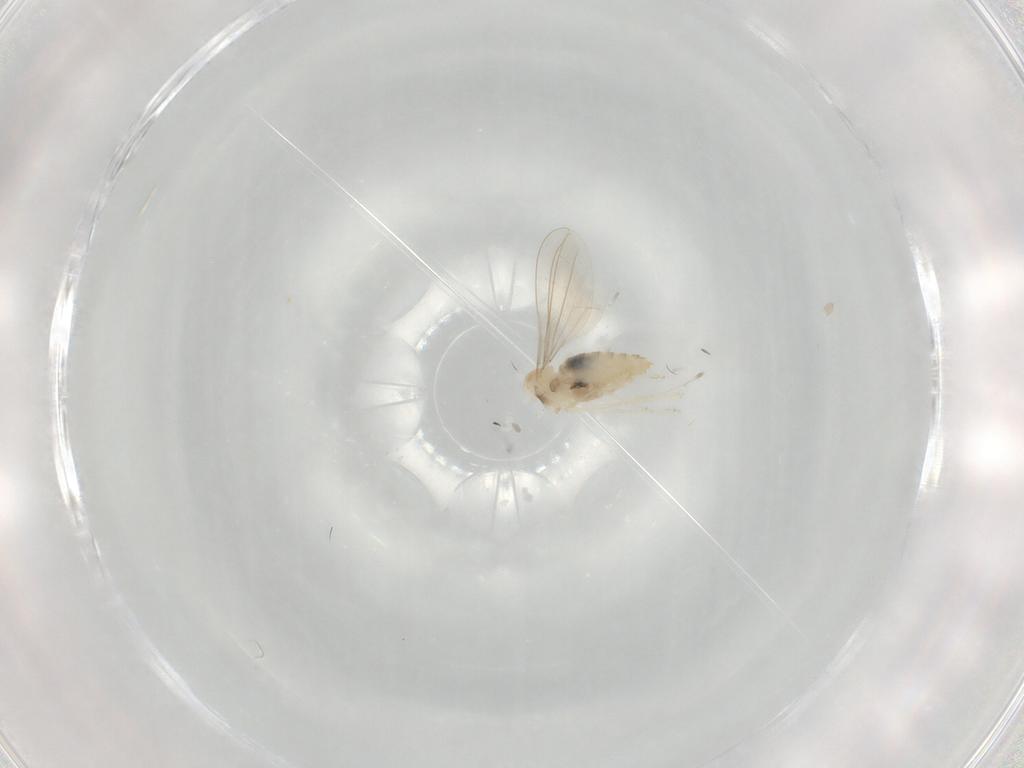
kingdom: Animalia
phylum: Arthropoda
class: Insecta
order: Diptera
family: Cecidomyiidae
